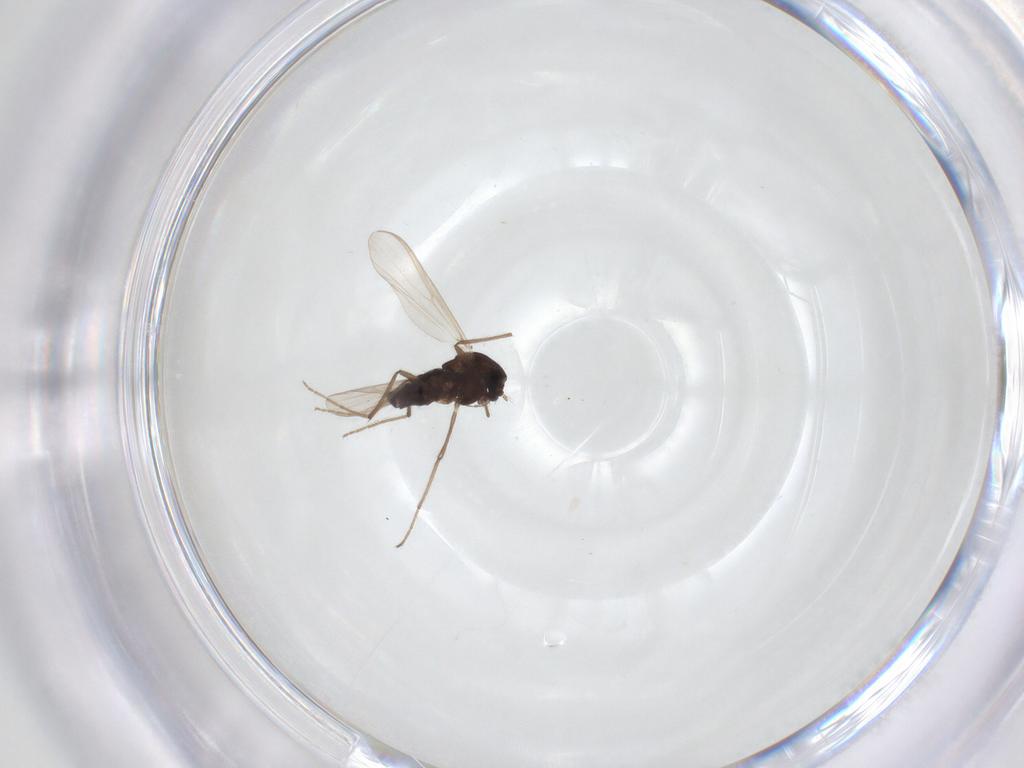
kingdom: Animalia
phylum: Arthropoda
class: Insecta
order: Diptera
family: Chironomidae
